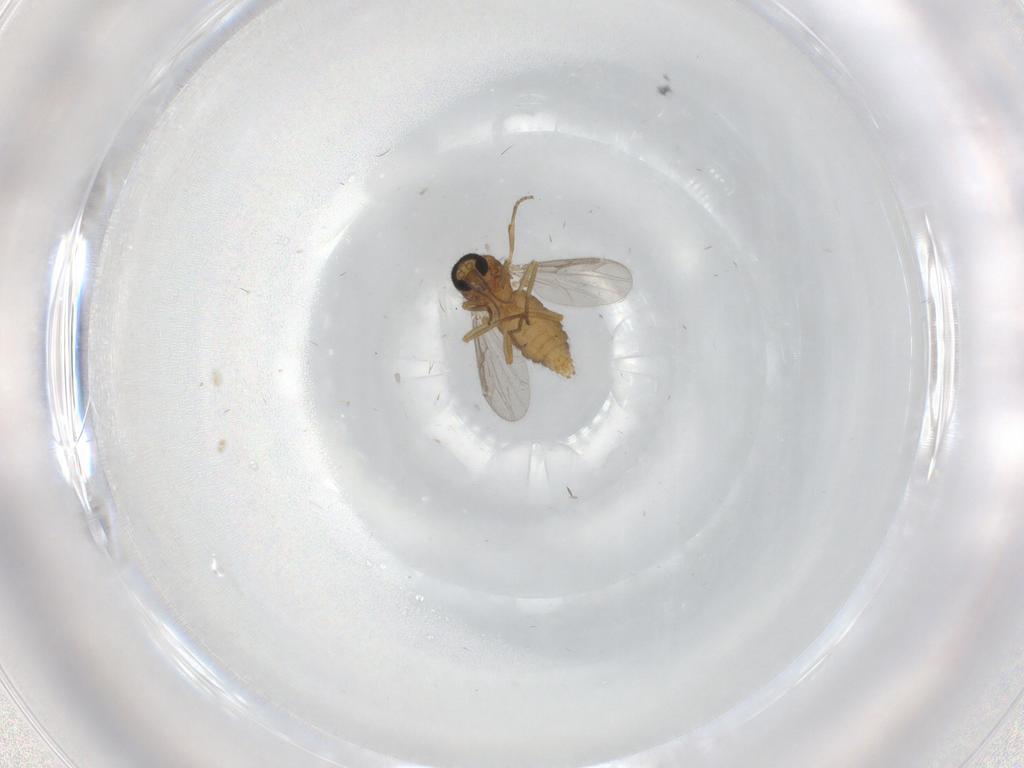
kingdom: Animalia
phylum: Arthropoda
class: Insecta
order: Diptera
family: Ceratopogonidae
